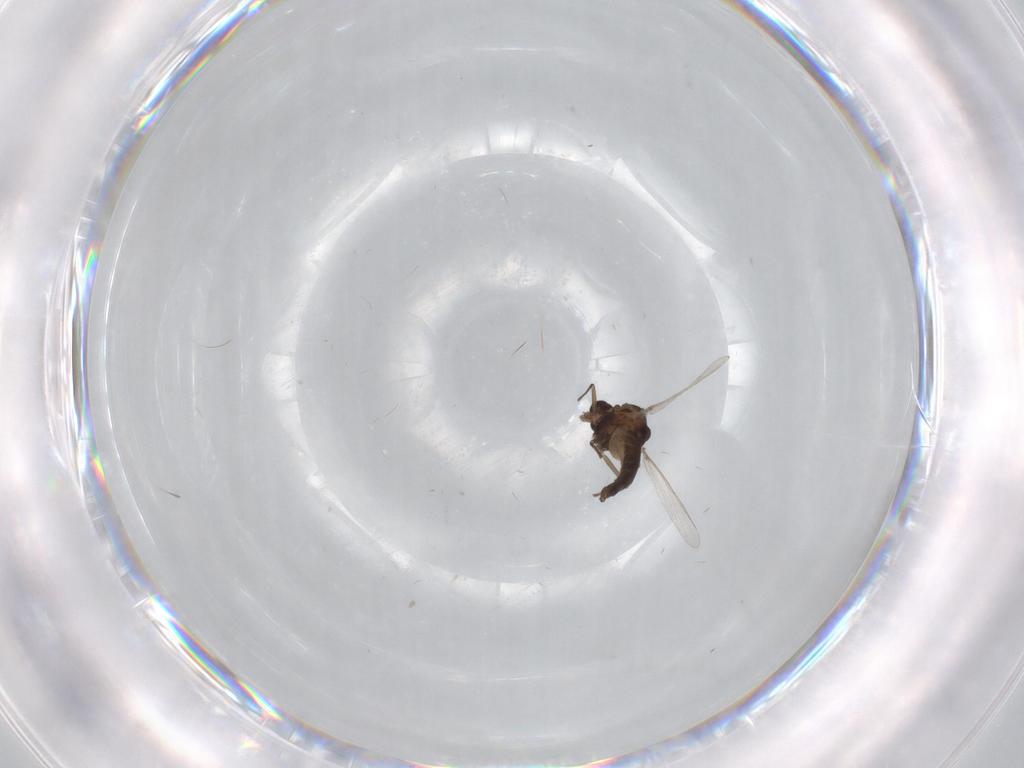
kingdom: Animalia
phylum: Arthropoda
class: Insecta
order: Diptera
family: Chironomidae
